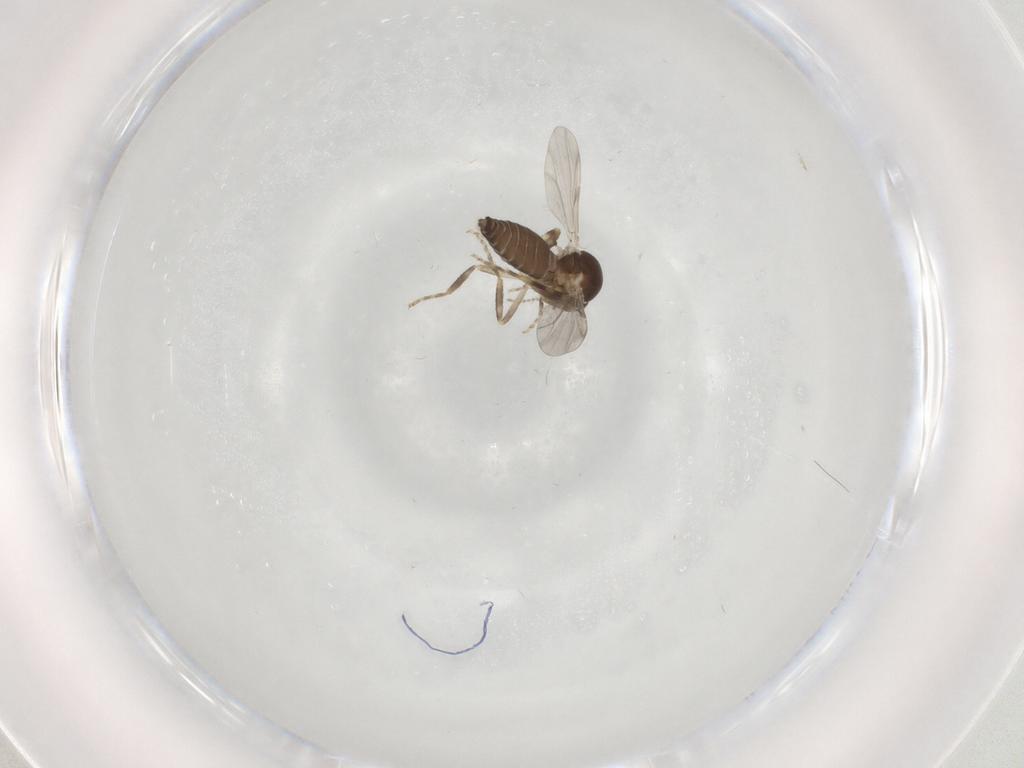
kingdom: Animalia
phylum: Arthropoda
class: Insecta
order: Diptera
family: Ceratopogonidae
